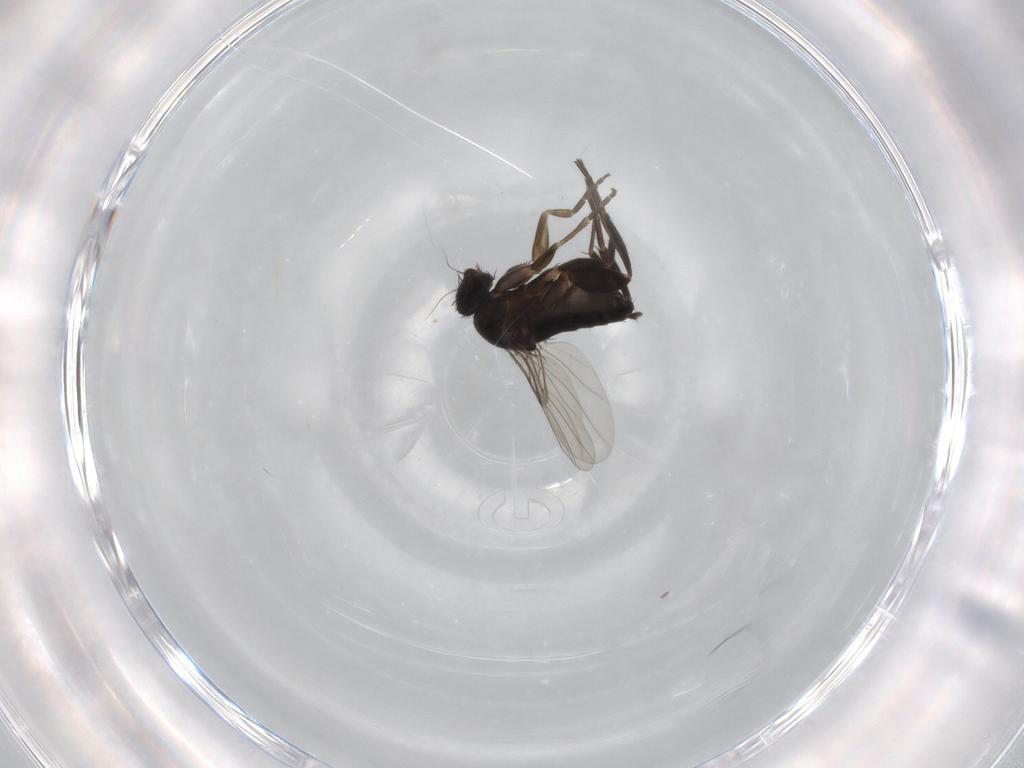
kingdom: Animalia
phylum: Arthropoda
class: Insecta
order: Diptera
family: Phoridae
